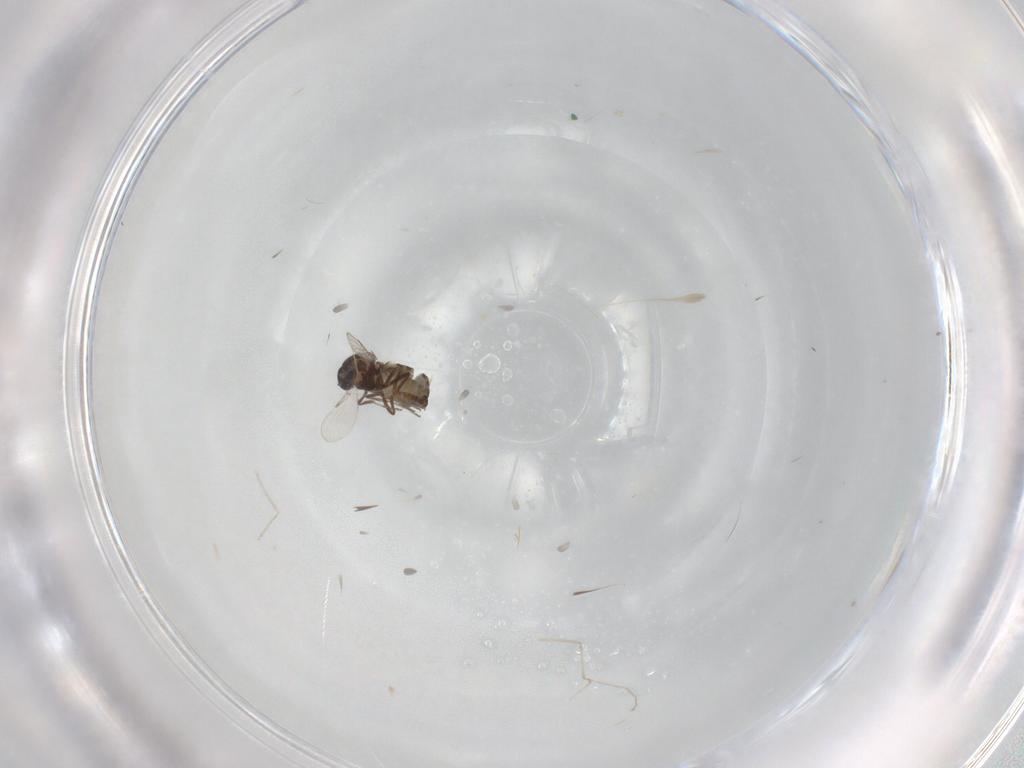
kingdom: Animalia
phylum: Arthropoda
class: Insecta
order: Diptera
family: Ceratopogonidae
